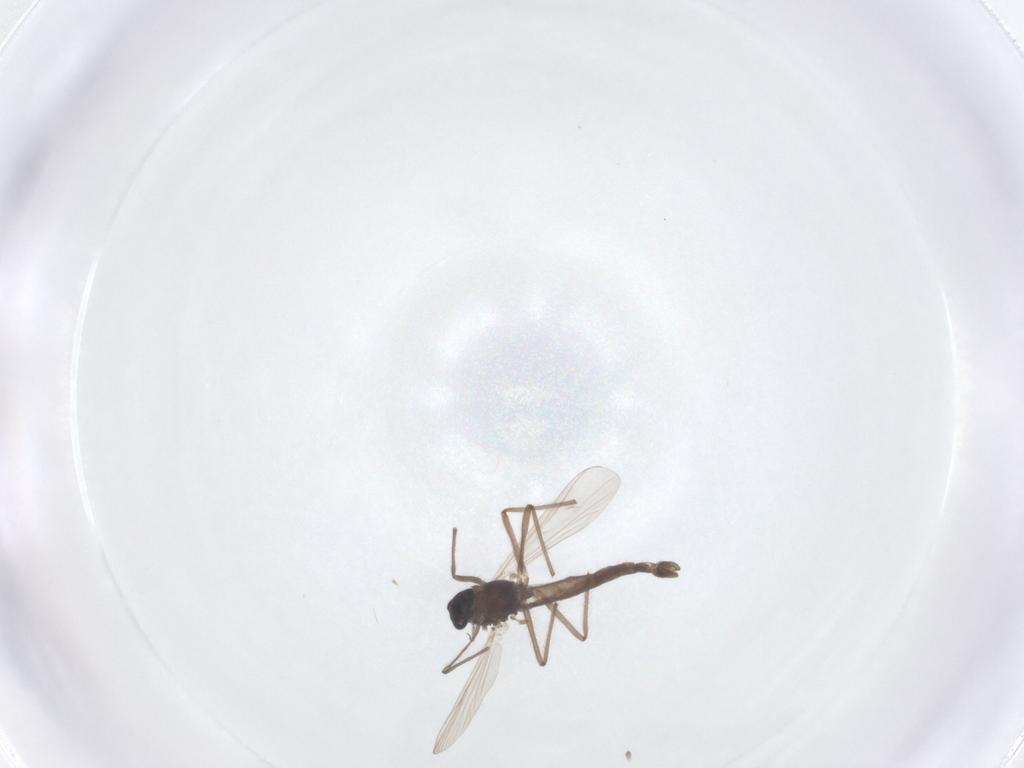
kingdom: Animalia
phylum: Arthropoda
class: Insecta
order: Diptera
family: Chironomidae
